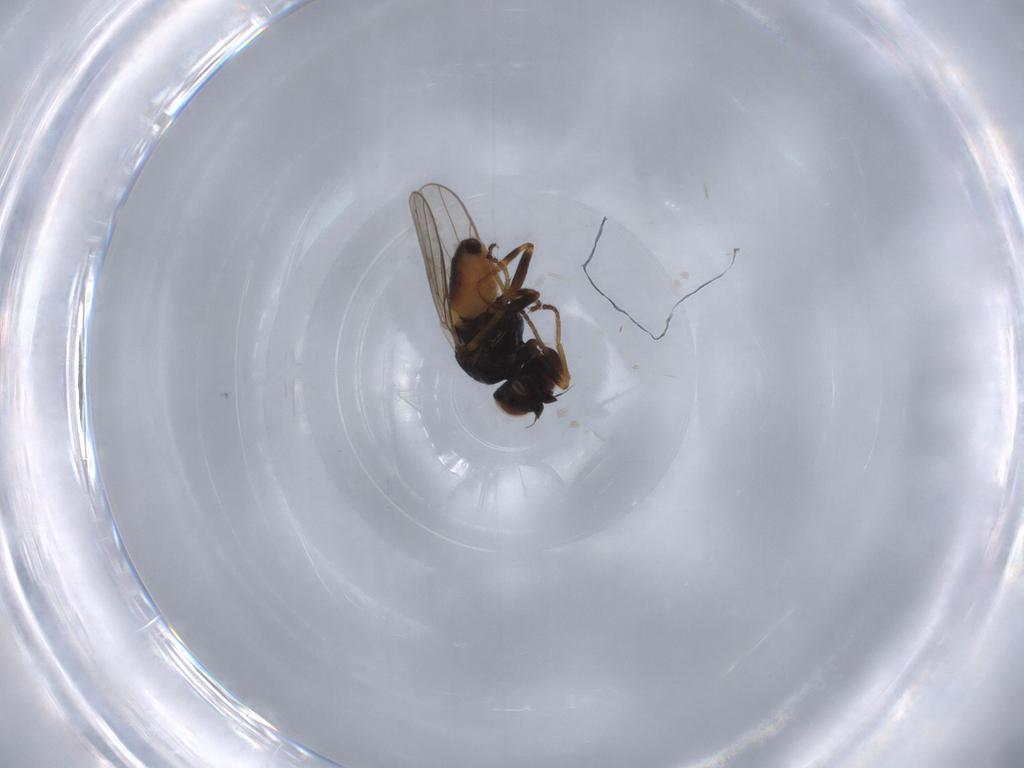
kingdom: Animalia
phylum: Arthropoda
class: Insecta
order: Diptera
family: Chloropidae
